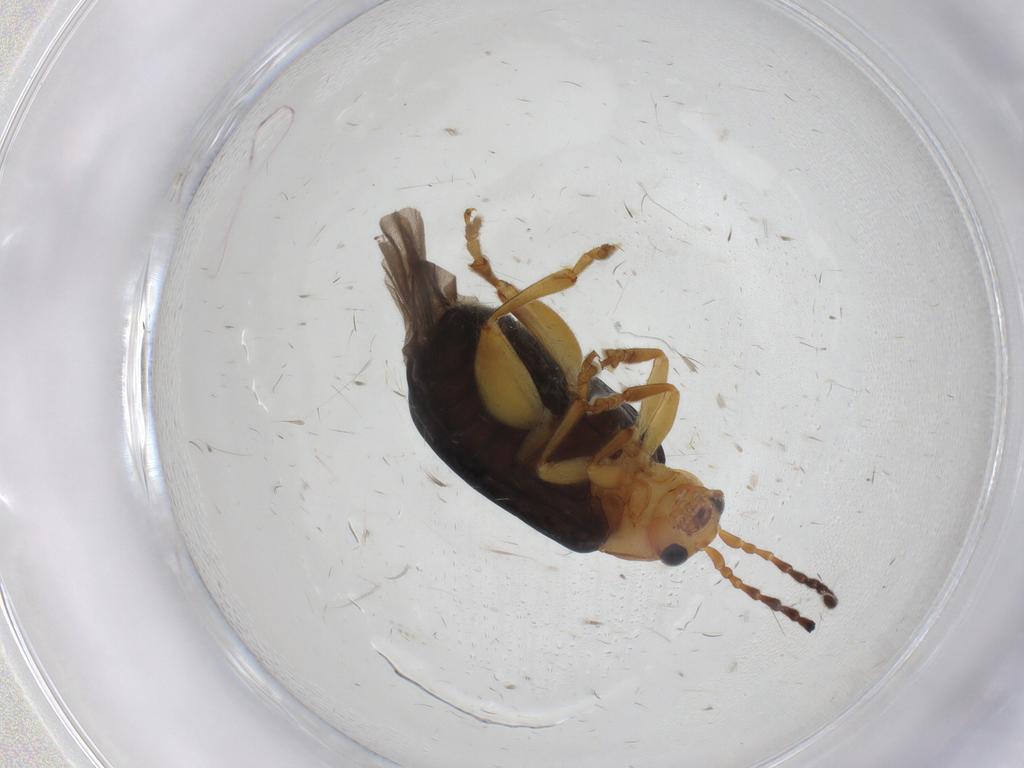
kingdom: Animalia
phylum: Arthropoda
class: Insecta
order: Coleoptera
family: Chrysomelidae
